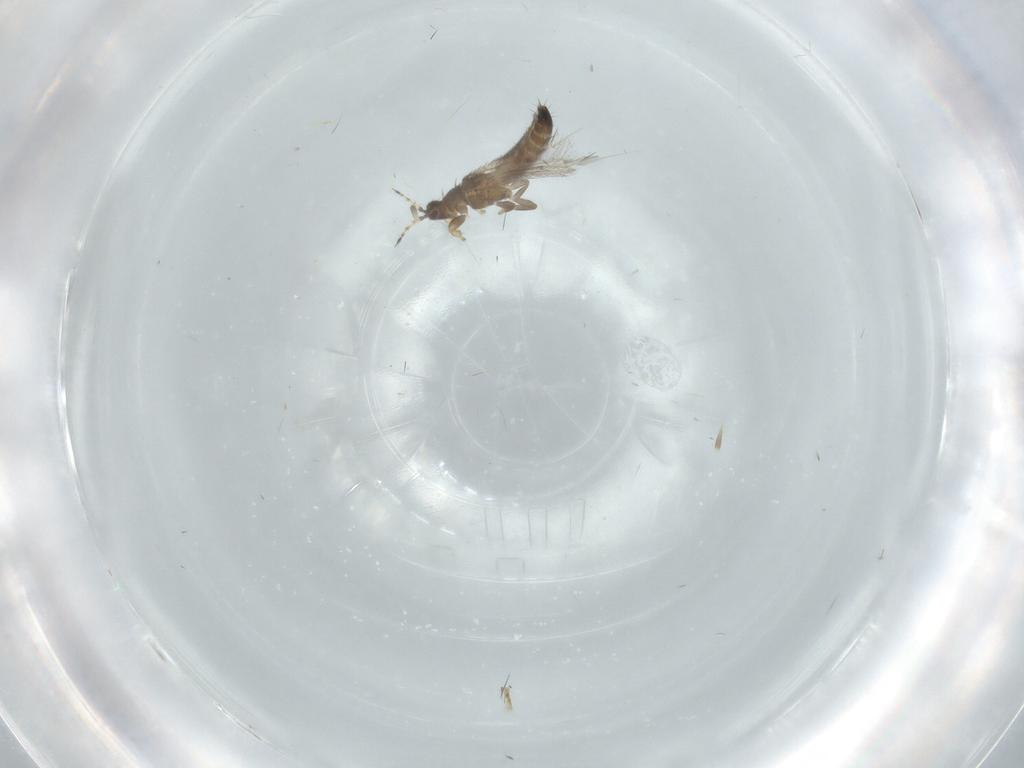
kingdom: Animalia
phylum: Arthropoda
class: Insecta
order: Thysanoptera
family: Thripidae
